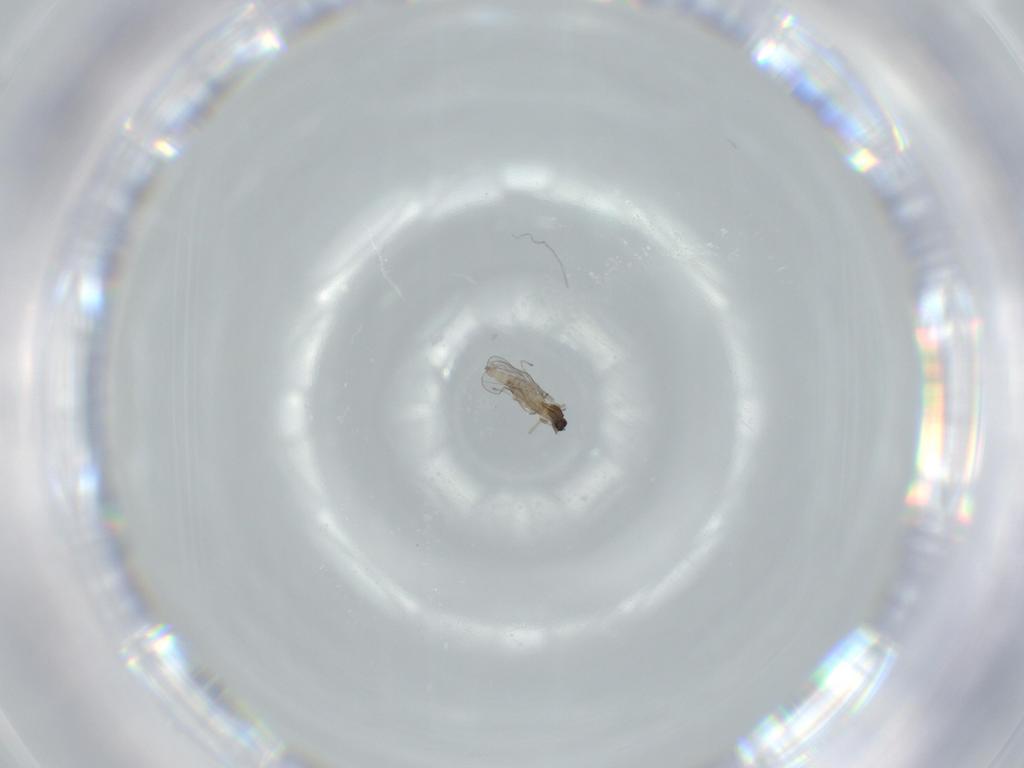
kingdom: Animalia
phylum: Arthropoda
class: Insecta
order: Diptera
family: Cecidomyiidae
